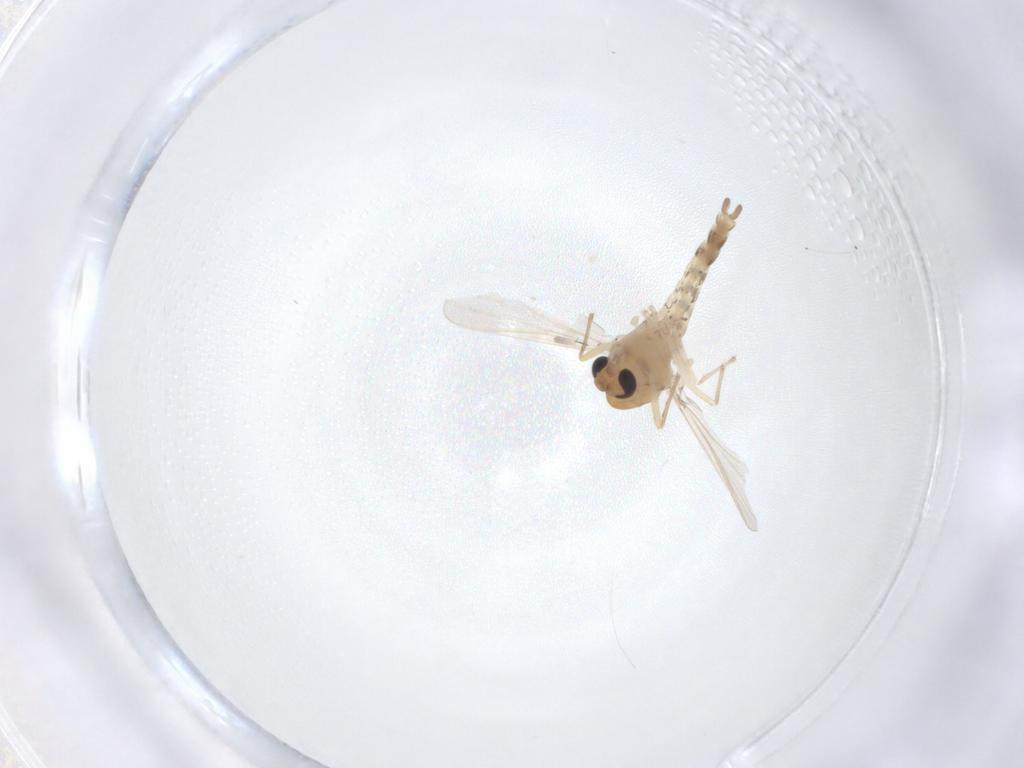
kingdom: Animalia
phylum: Arthropoda
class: Insecta
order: Diptera
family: Chironomidae
